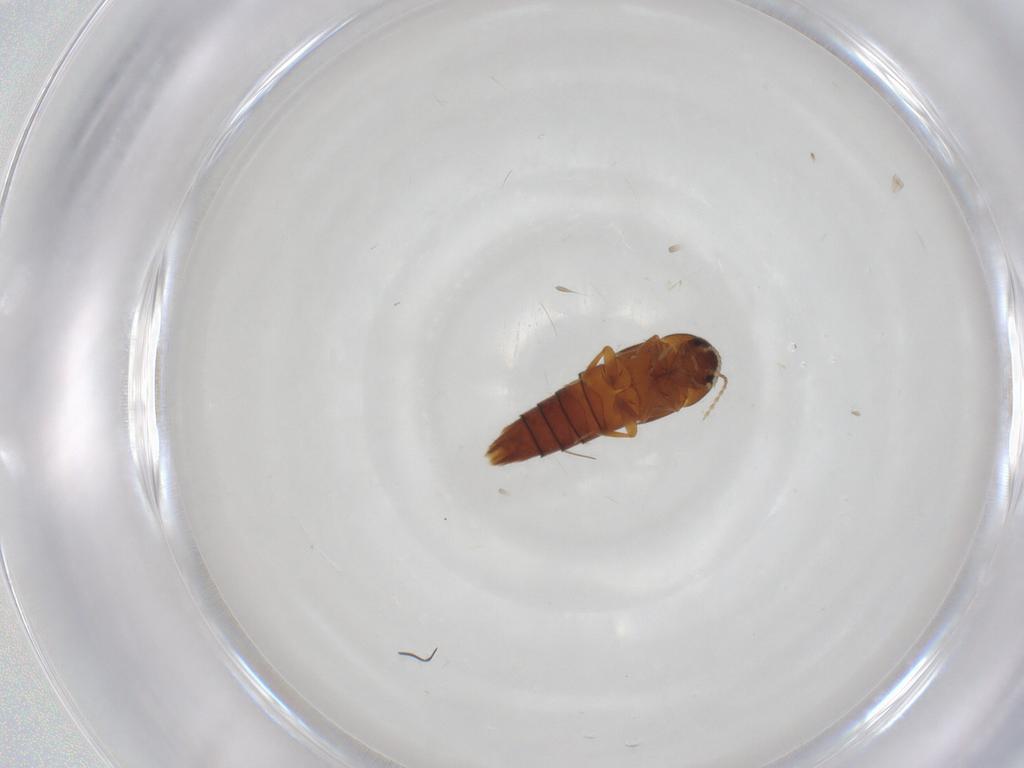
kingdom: Animalia
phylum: Arthropoda
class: Insecta
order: Coleoptera
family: Staphylinidae
